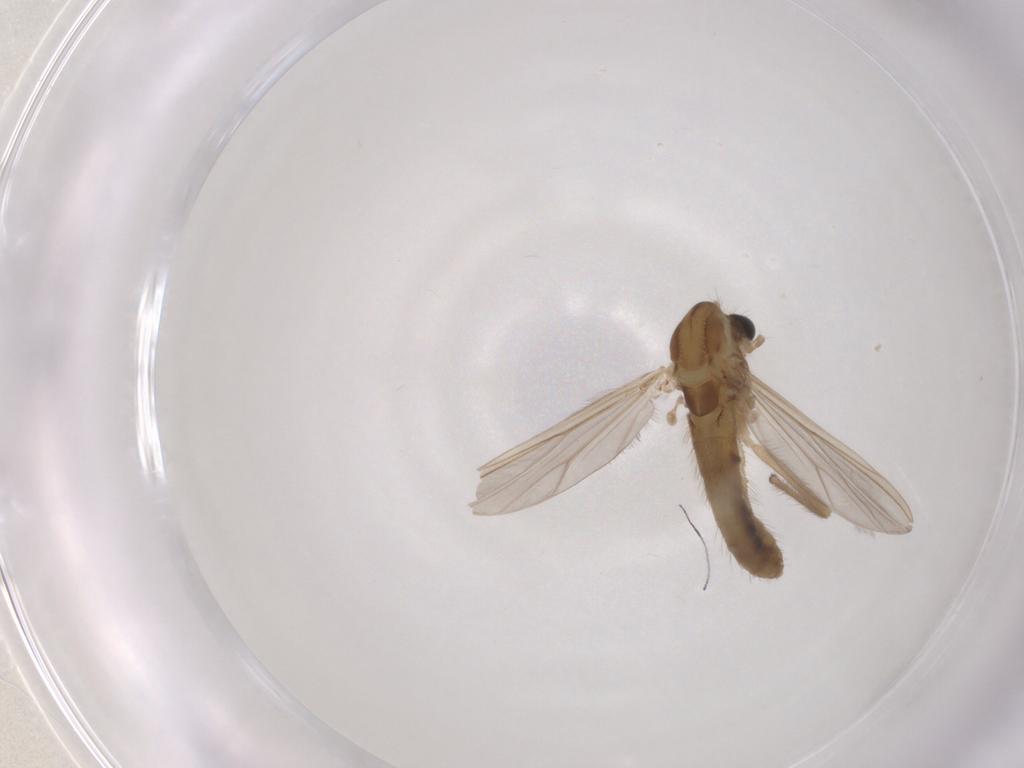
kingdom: Animalia
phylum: Arthropoda
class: Insecta
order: Diptera
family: Chironomidae
